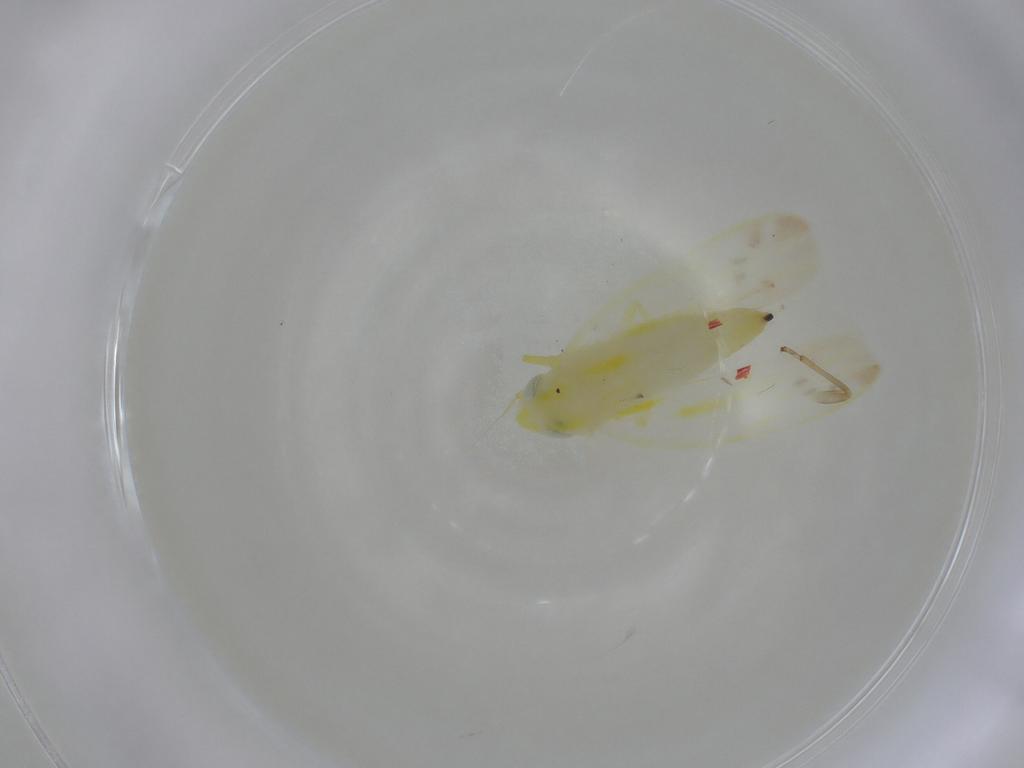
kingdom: Animalia
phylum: Arthropoda
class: Insecta
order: Hemiptera
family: Cicadellidae
